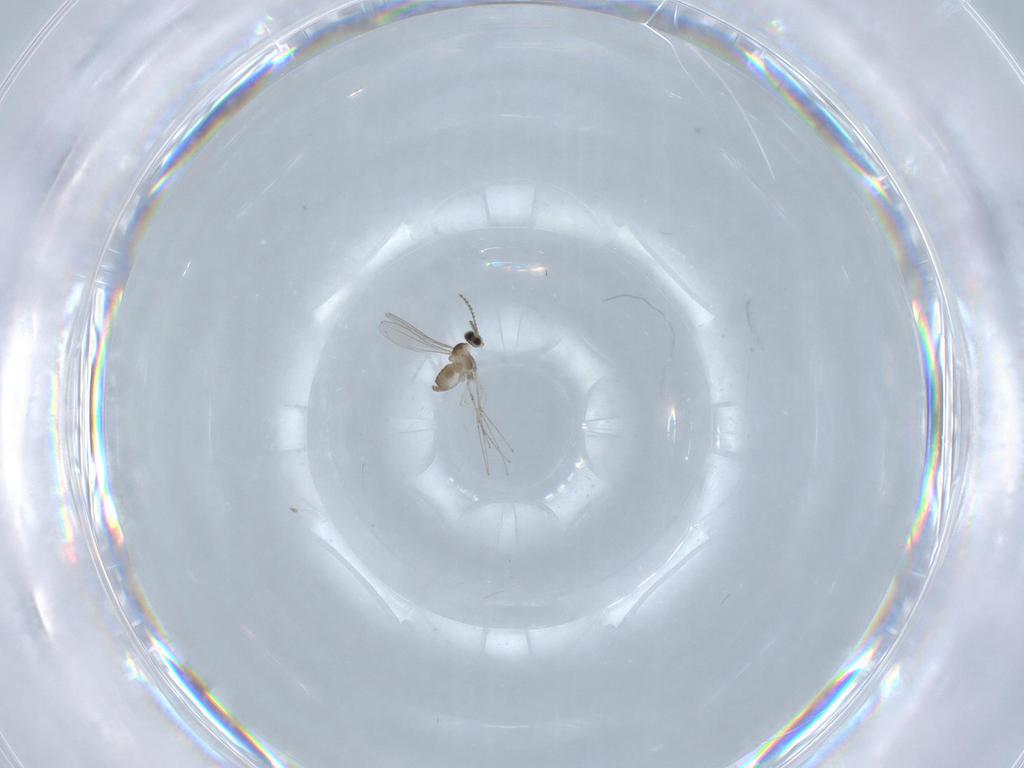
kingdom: Animalia
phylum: Arthropoda
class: Insecta
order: Diptera
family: Cecidomyiidae
